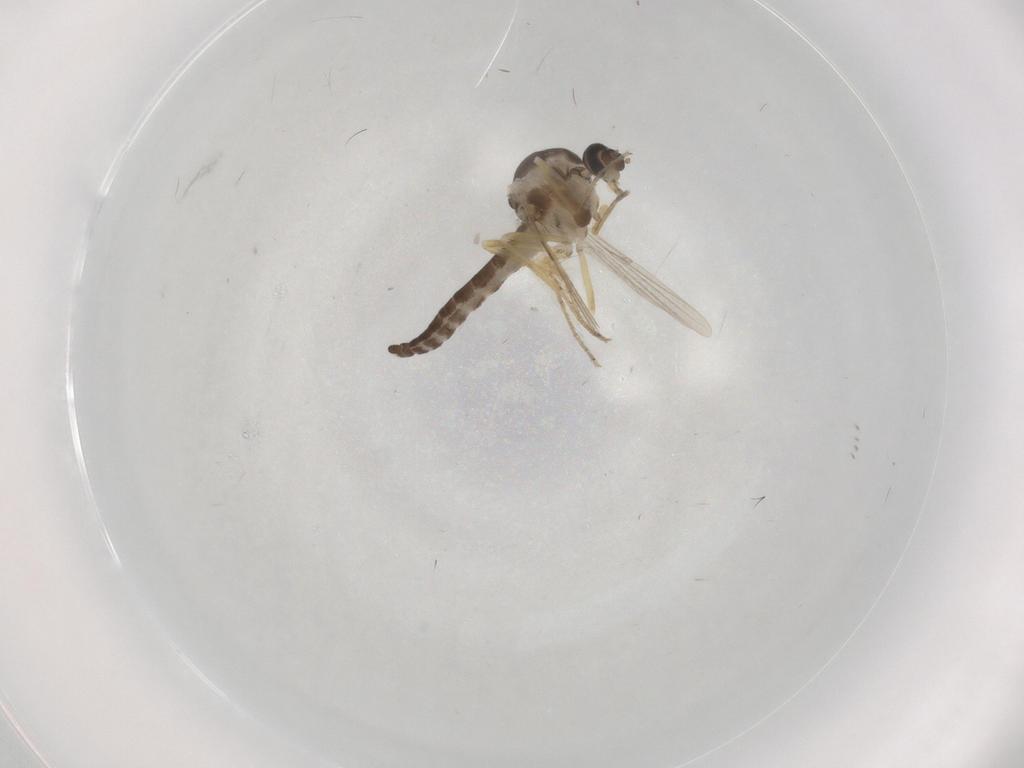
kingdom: Animalia
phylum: Arthropoda
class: Insecta
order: Diptera
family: Ceratopogonidae
